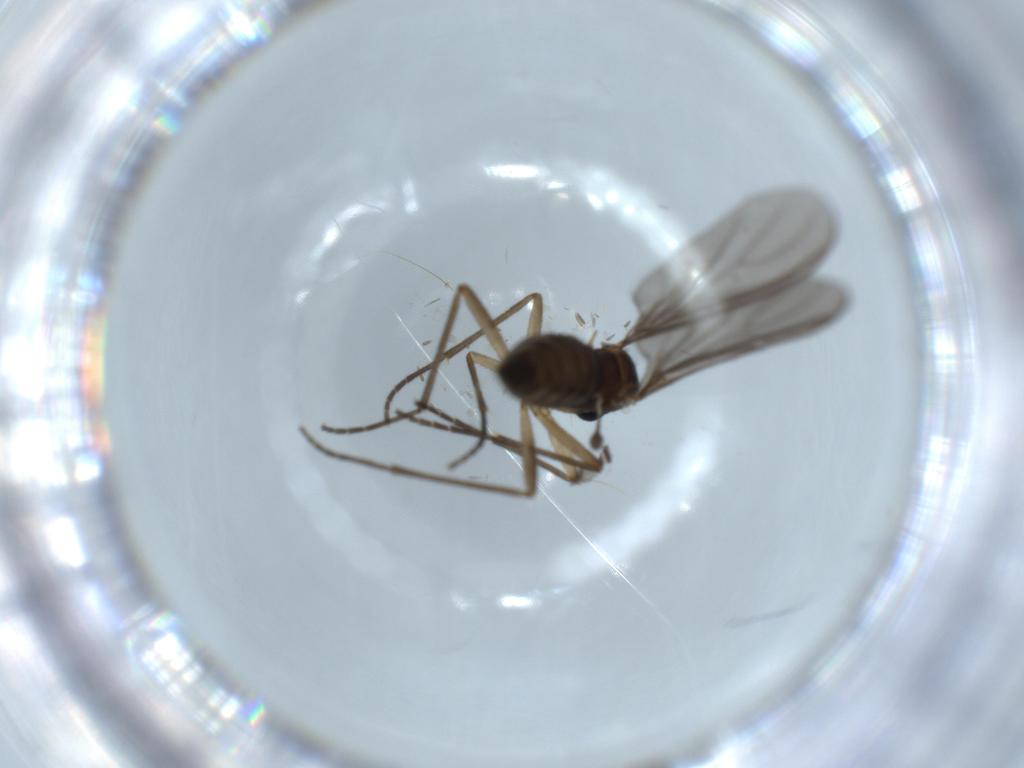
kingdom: Animalia
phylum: Arthropoda
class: Insecta
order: Diptera
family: Sciaridae
